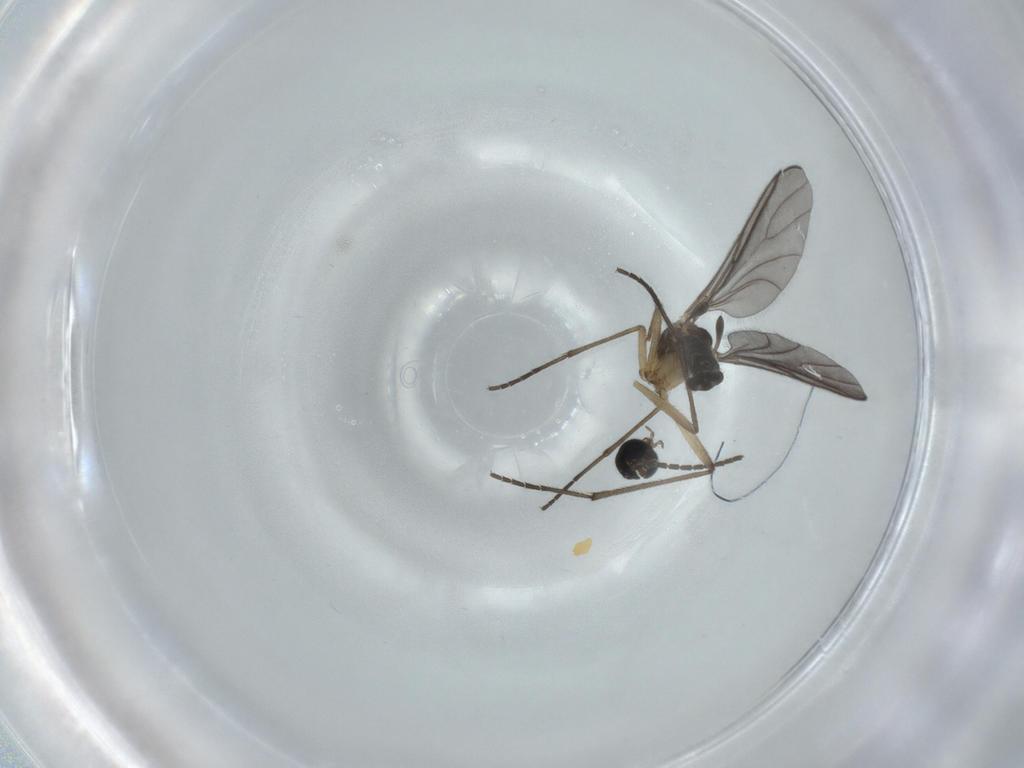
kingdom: Animalia
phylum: Arthropoda
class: Insecta
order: Diptera
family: Sciaridae
